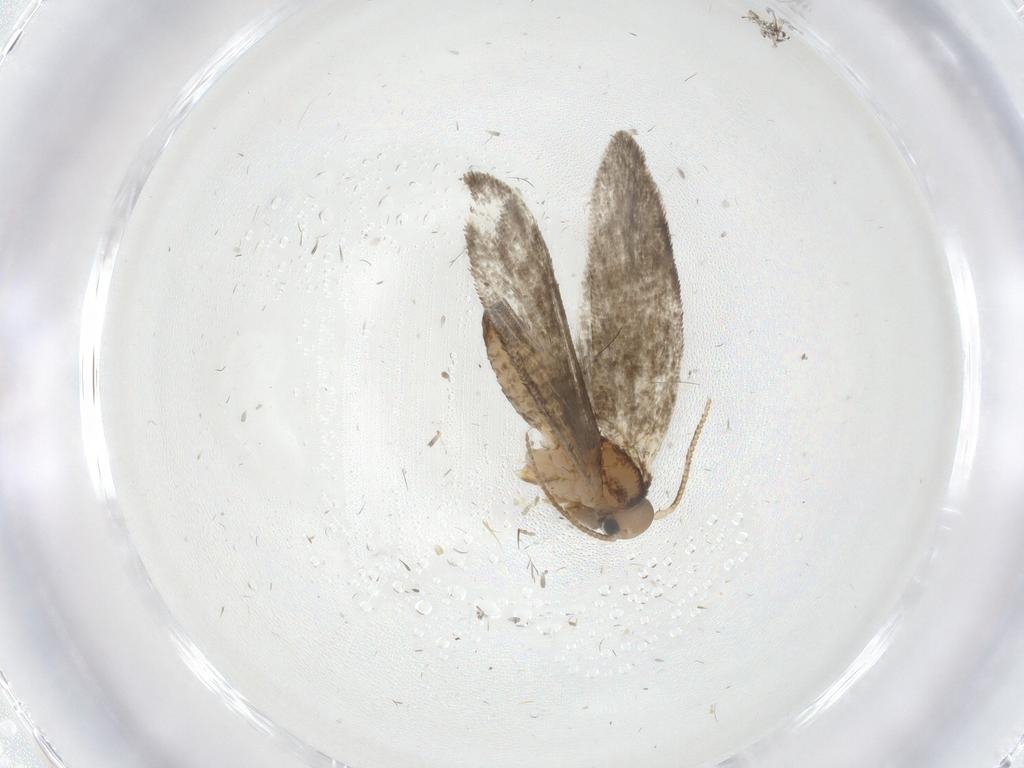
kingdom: Animalia
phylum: Arthropoda
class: Insecta
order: Lepidoptera
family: Psychidae
